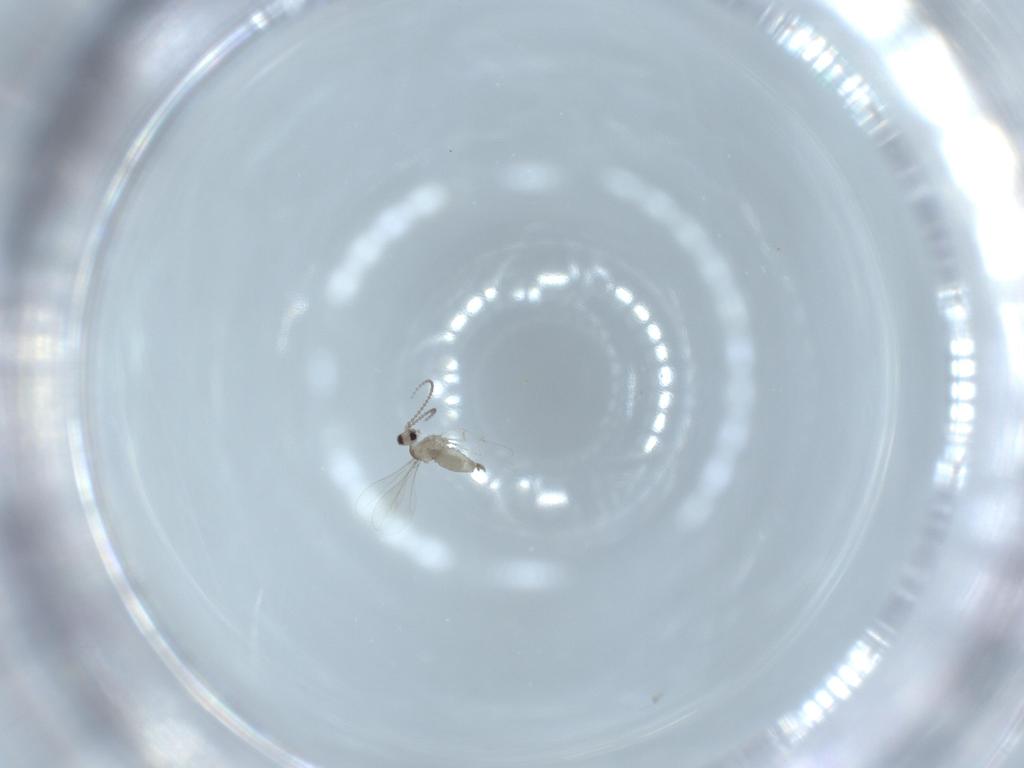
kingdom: Animalia
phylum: Arthropoda
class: Insecta
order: Diptera
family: Cecidomyiidae
